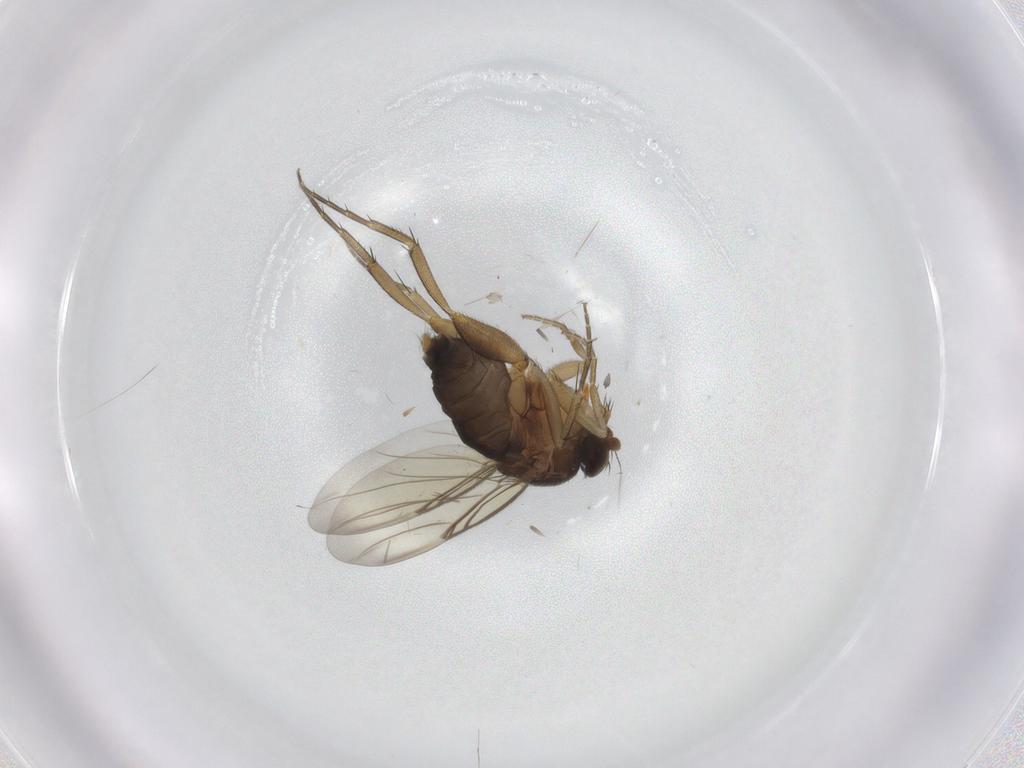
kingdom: Animalia
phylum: Arthropoda
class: Insecta
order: Diptera
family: Phoridae
